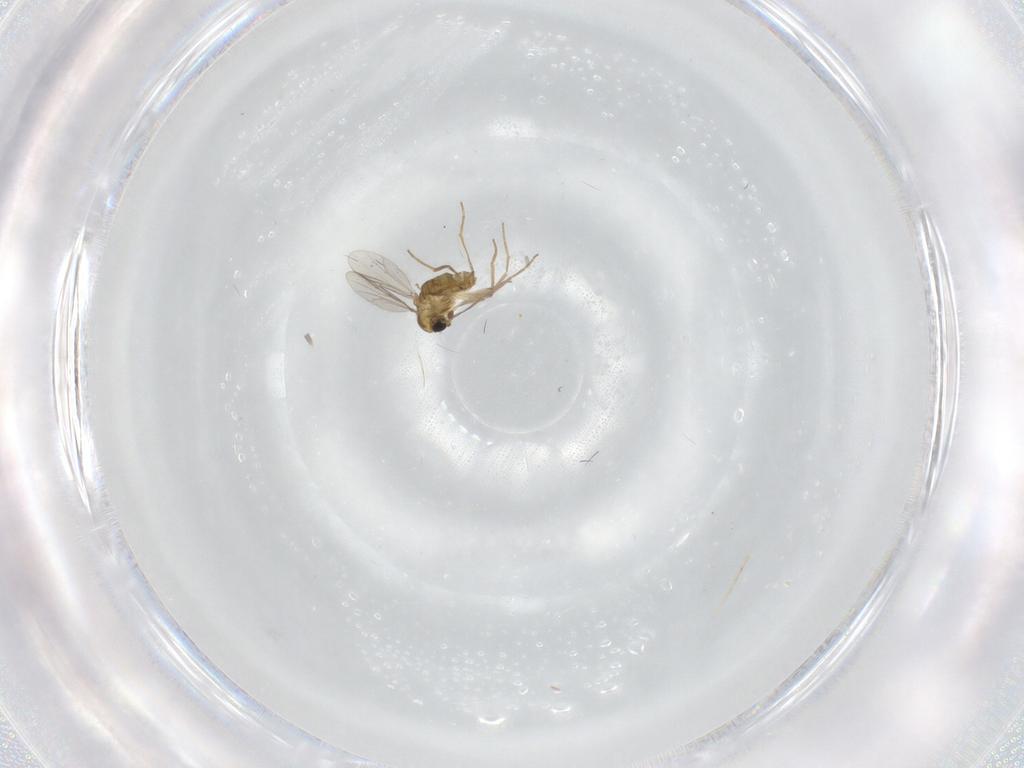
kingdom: Animalia
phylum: Arthropoda
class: Insecta
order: Diptera
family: Chironomidae
